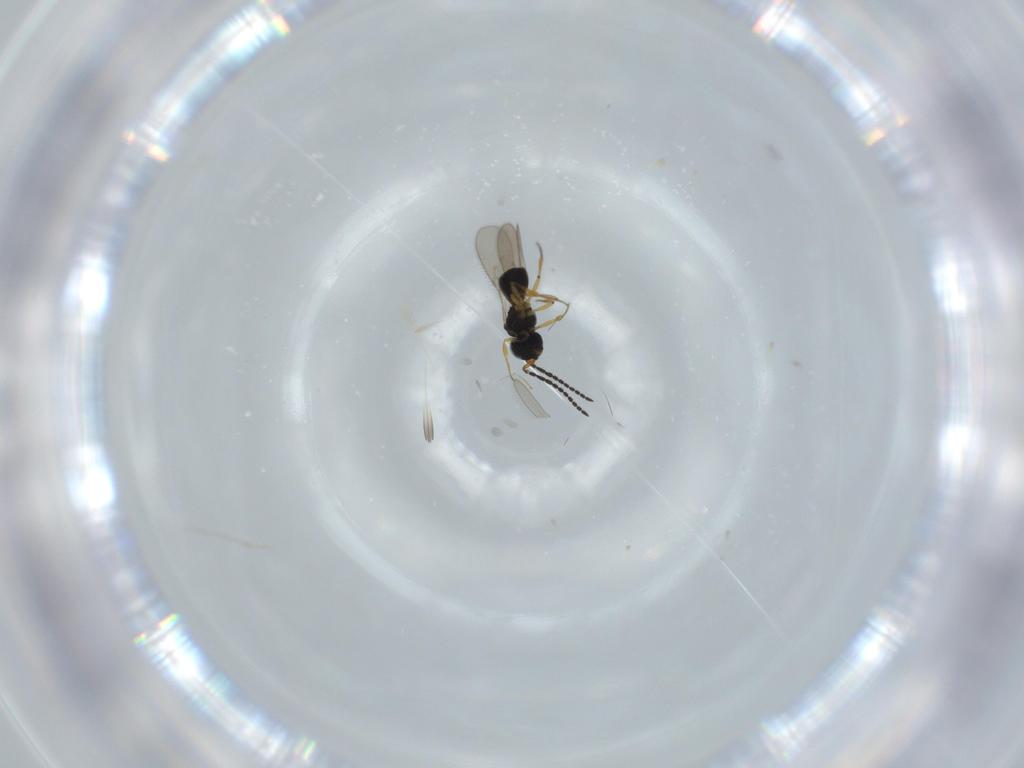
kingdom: Animalia
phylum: Arthropoda
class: Insecta
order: Hymenoptera
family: Scelionidae
